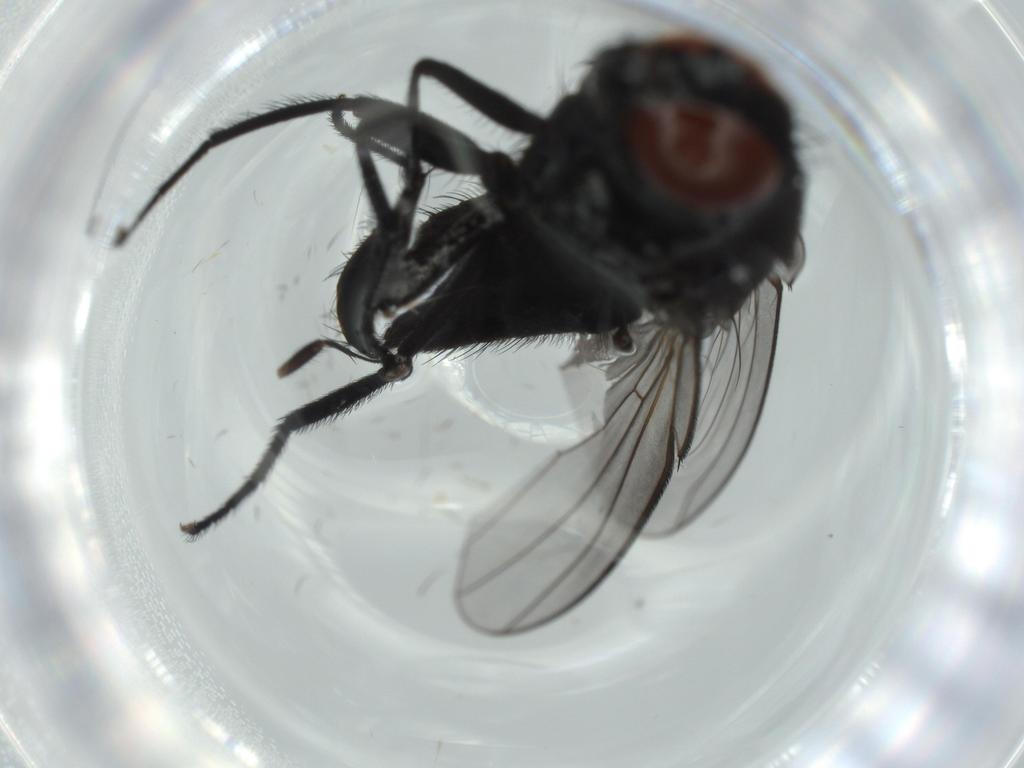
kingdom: Animalia
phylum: Arthropoda
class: Insecta
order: Diptera
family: Milichiidae
